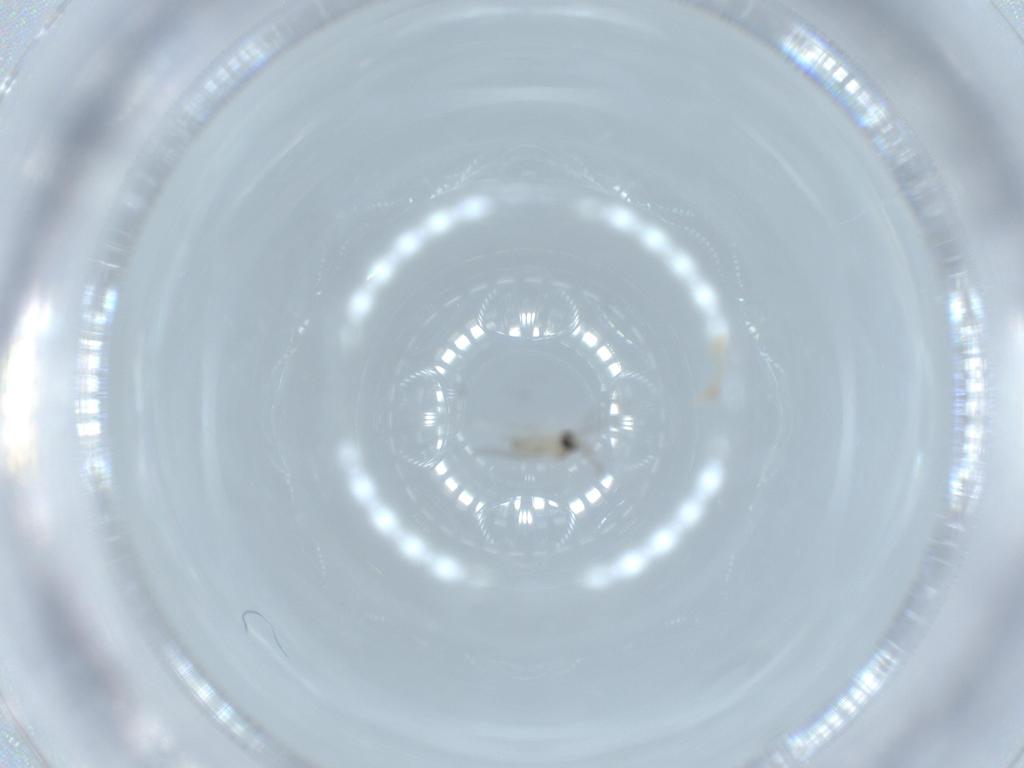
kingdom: Animalia
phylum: Arthropoda
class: Insecta
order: Diptera
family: Cecidomyiidae
